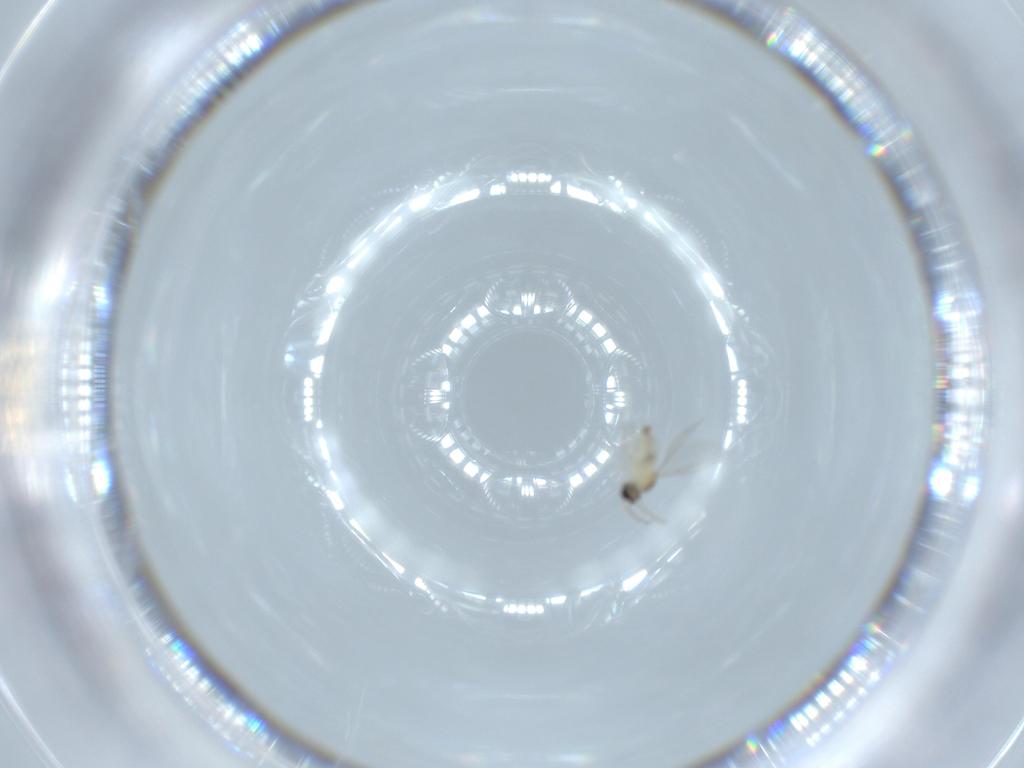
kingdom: Animalia
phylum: Arthropoda
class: Insecta
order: Diptera
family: Cecidomyiidae
